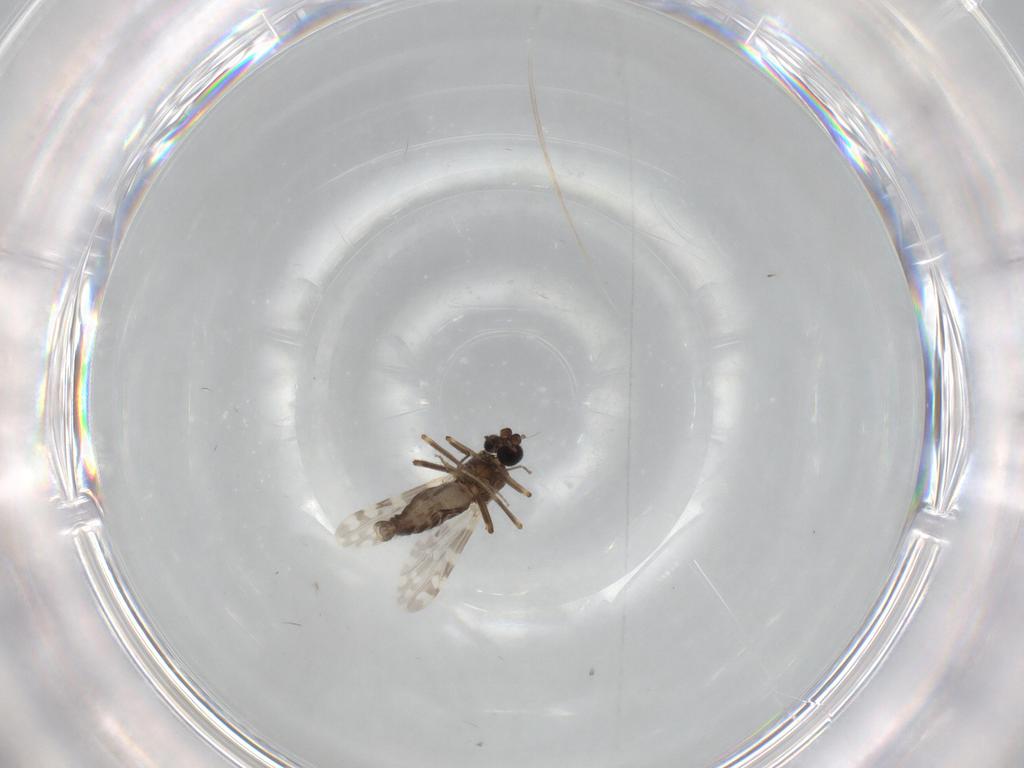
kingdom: Animalia
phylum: Arthropoda
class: Insecta
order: Diptera
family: Ceratopogonidae
